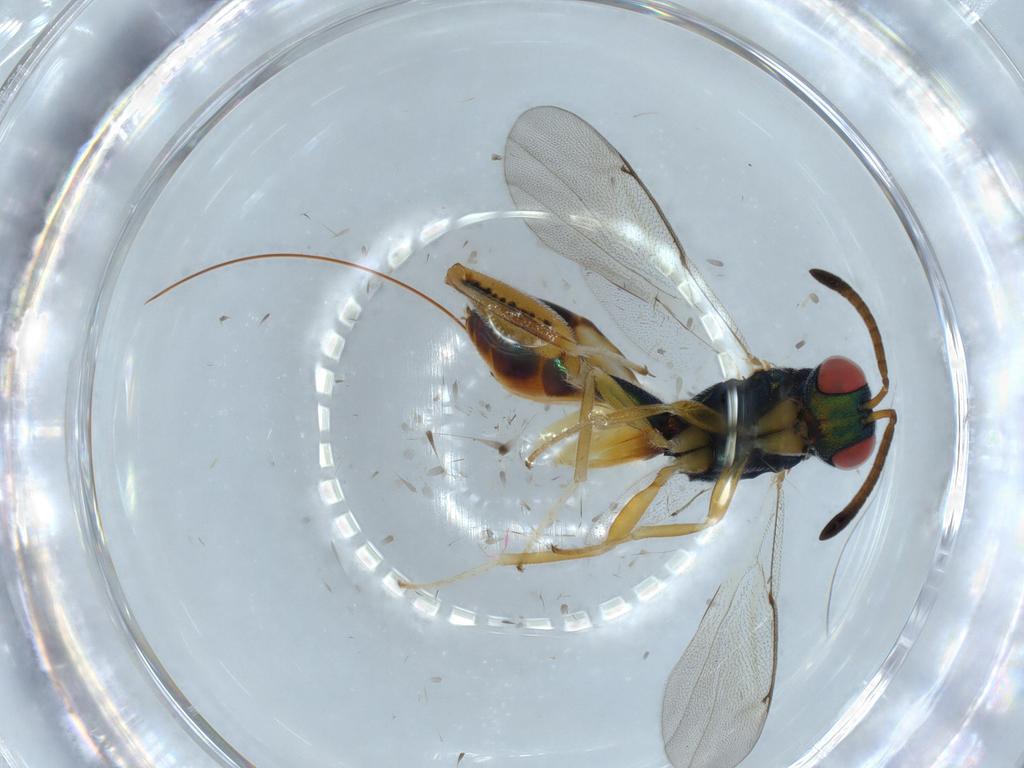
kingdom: Animalia
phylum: Arthropoda
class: Insecta
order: Hymenoptera
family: Torymidae
